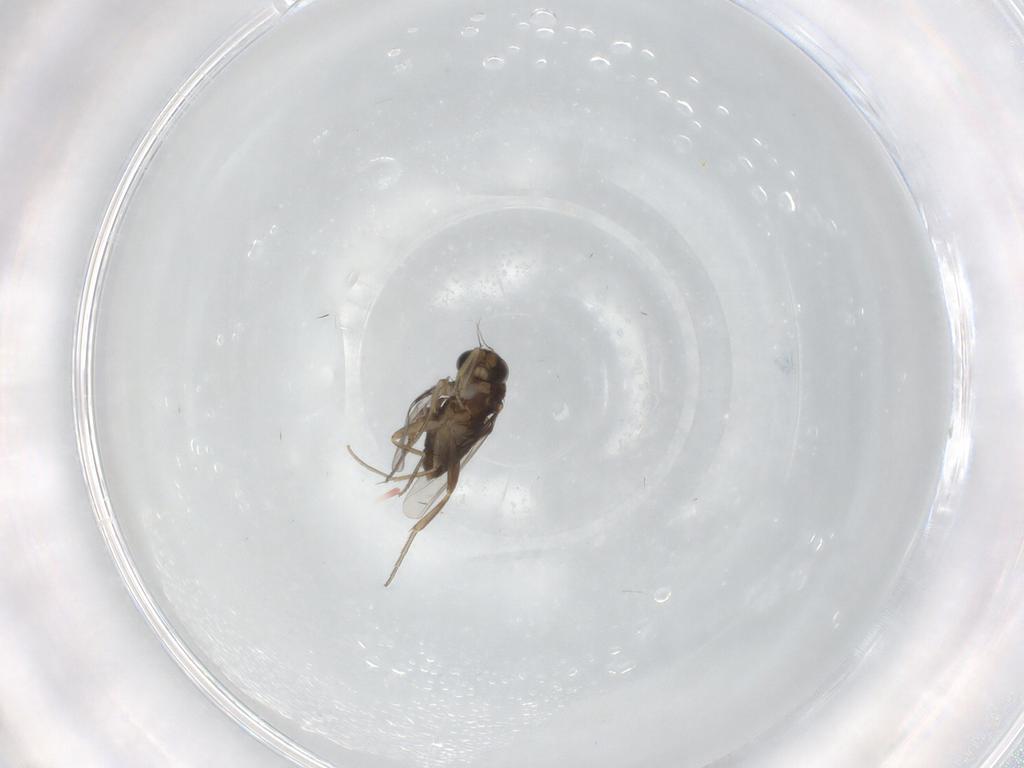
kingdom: Animalia
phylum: Arthropoda
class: Insecta
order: Diptera
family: Phoridae
